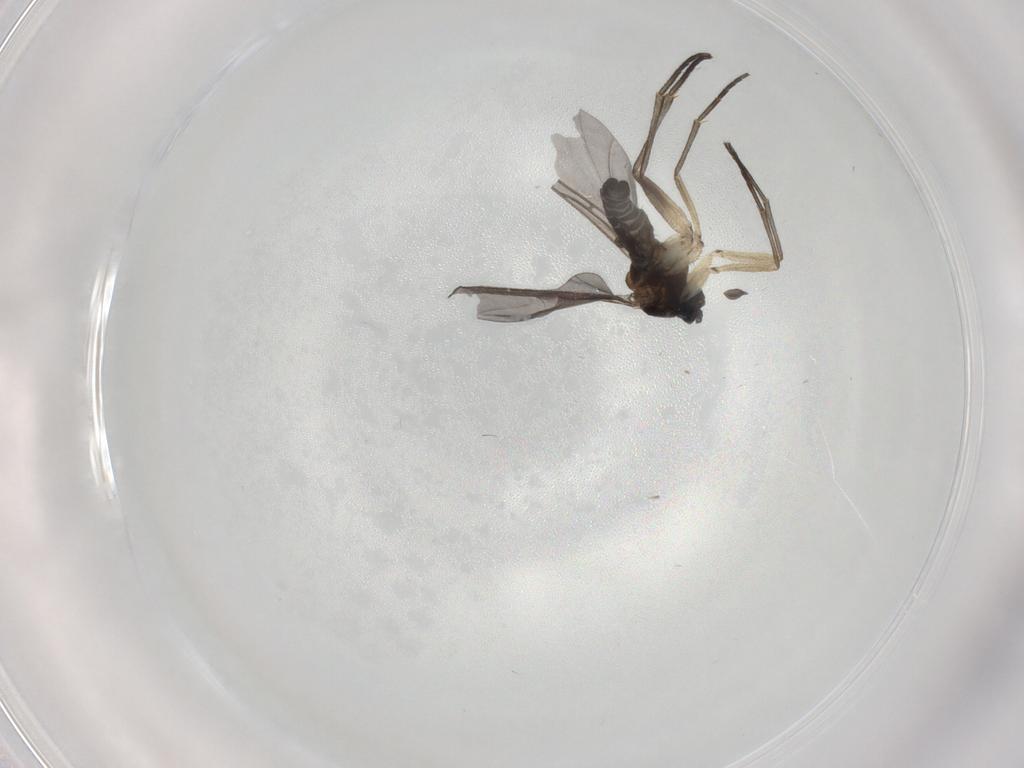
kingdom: Animalia
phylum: Arthropoda
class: Insecta
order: Diptera
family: Sciaridae
